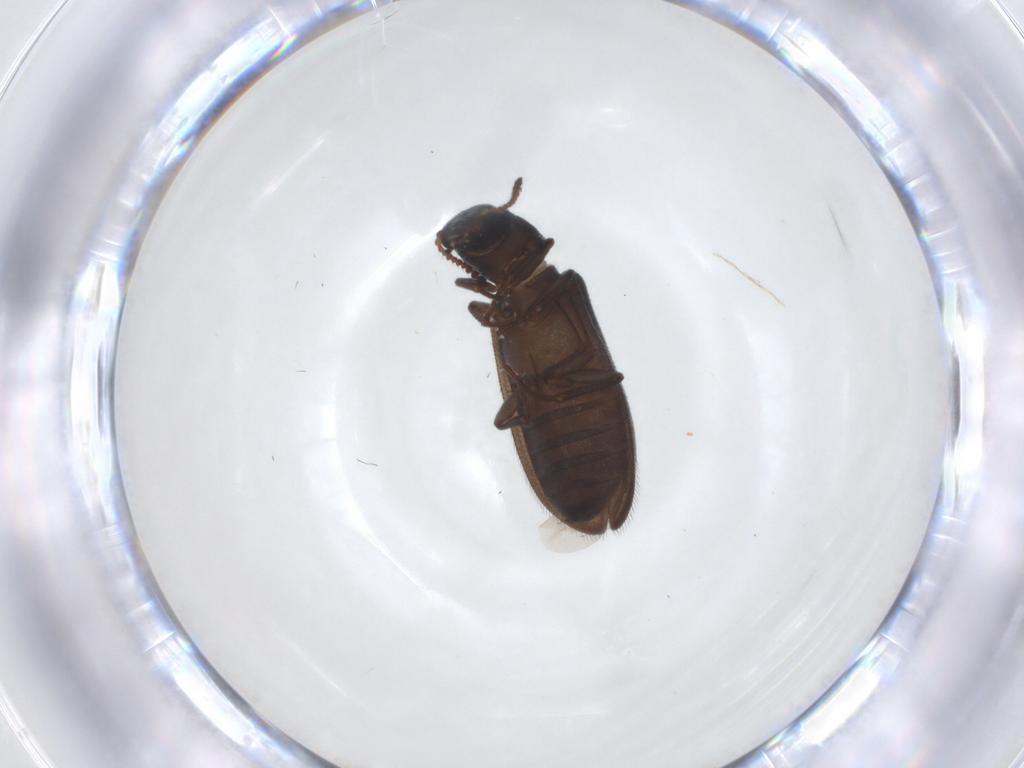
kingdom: Animalia
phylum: Arthropoda
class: Insecta
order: Coleoptera
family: Melyridae
